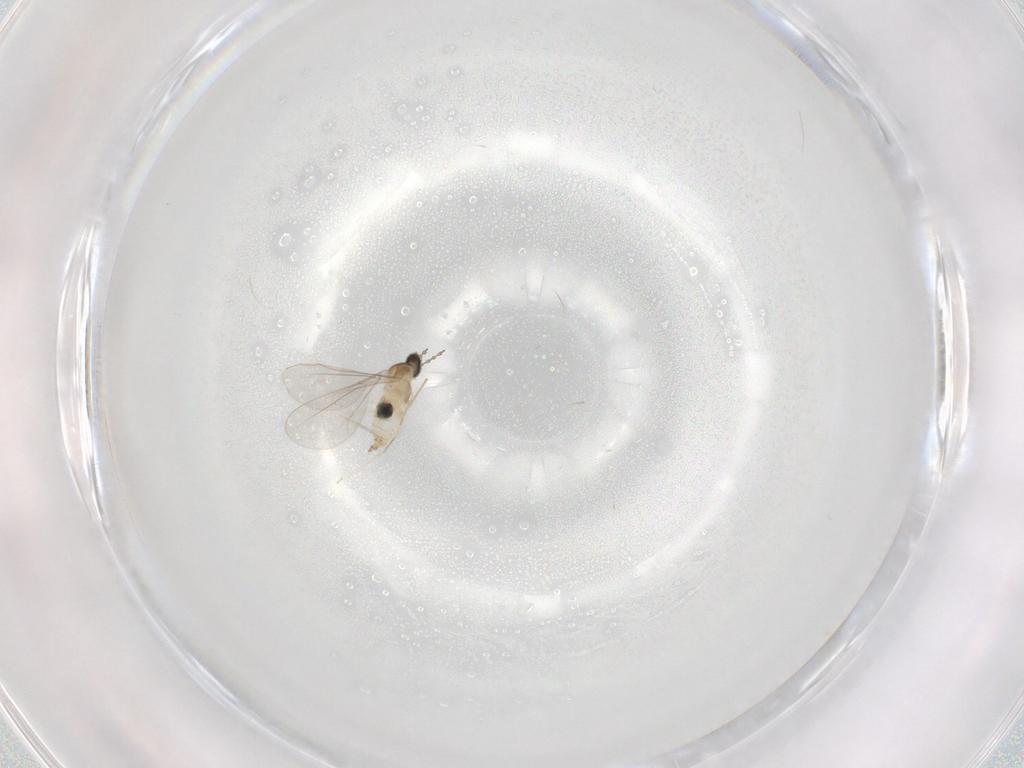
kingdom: Animalia
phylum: Arthropoda
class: Insecta
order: Diptera
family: Cecidomyiidae
